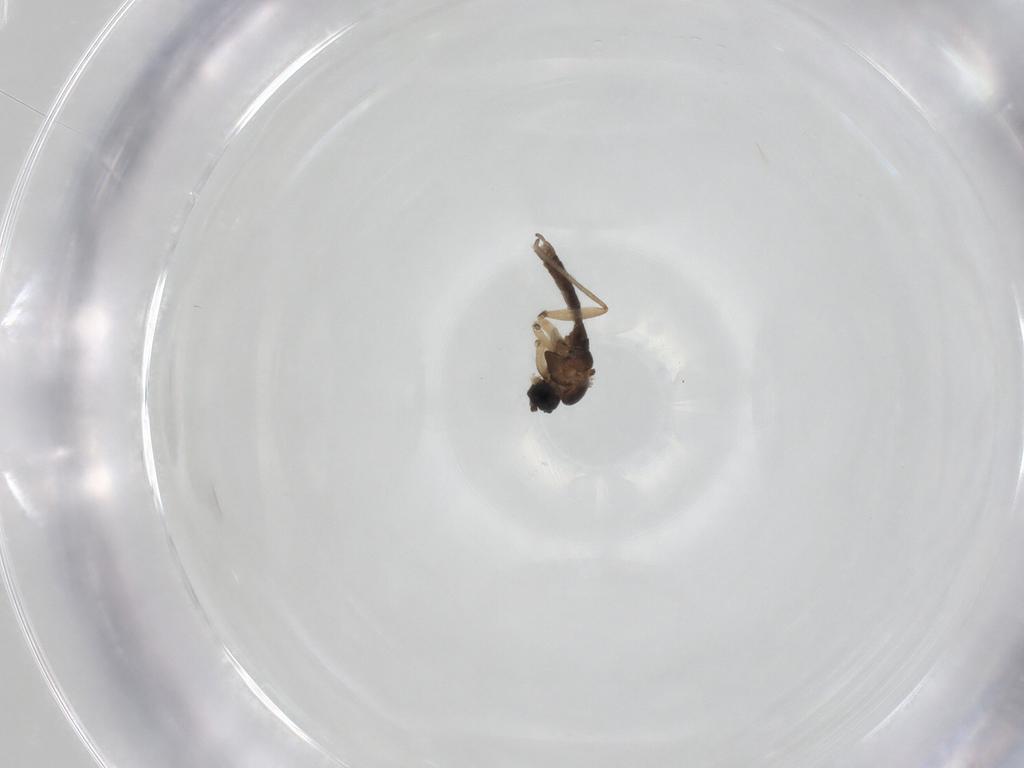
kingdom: Animalia
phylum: Arthropoda
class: Insecta
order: Diptera
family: Sciaridae
